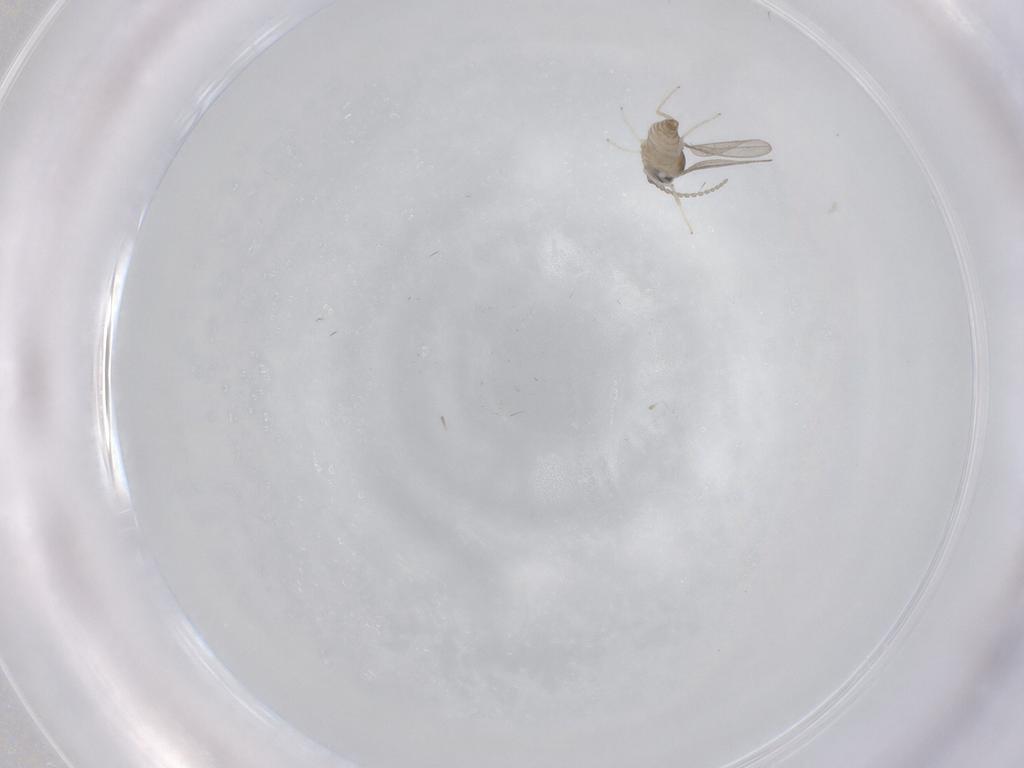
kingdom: Animalia
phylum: Arthropoda
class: Insecta
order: Diptera
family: Cecidomyiidae
